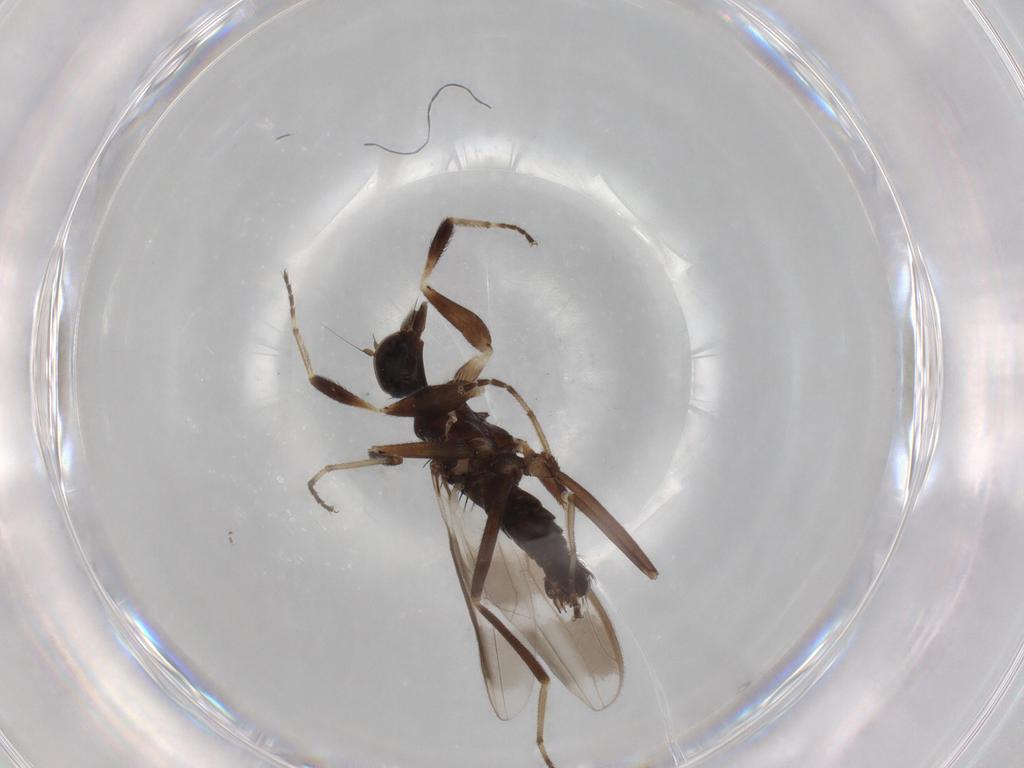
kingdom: Animalia
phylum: Arthropoda
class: Insecta
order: Diptera
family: Hybotidae
